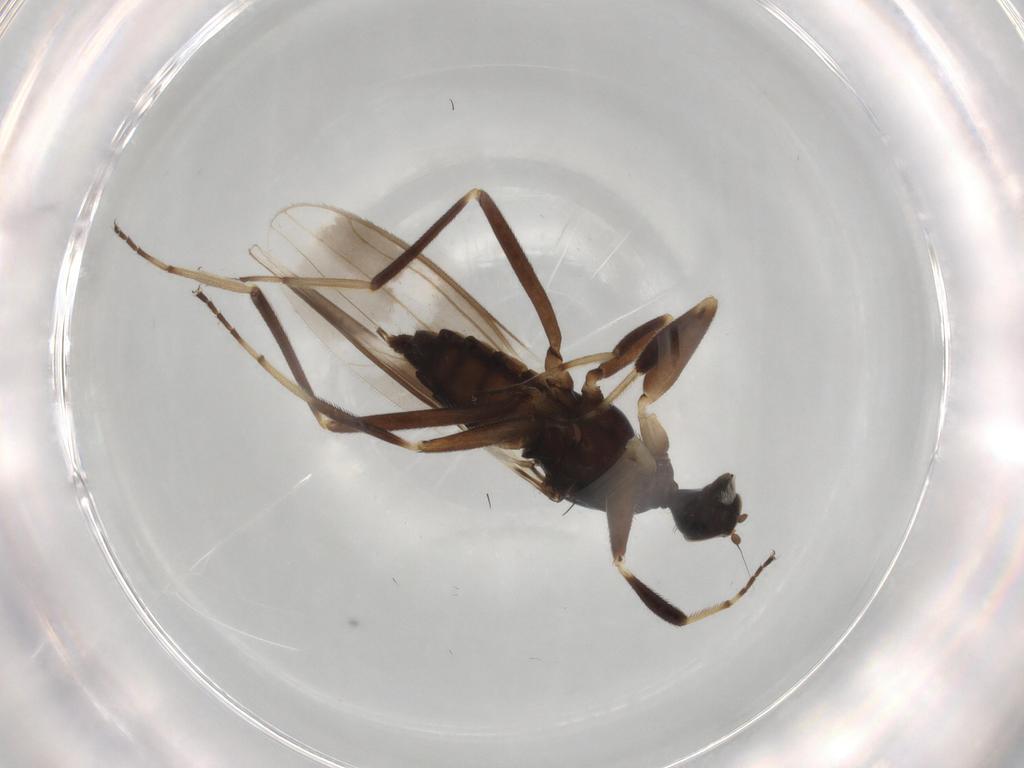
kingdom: Animalia
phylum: Arthropoda
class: Insecta
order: Diptera
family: Hybotidae
